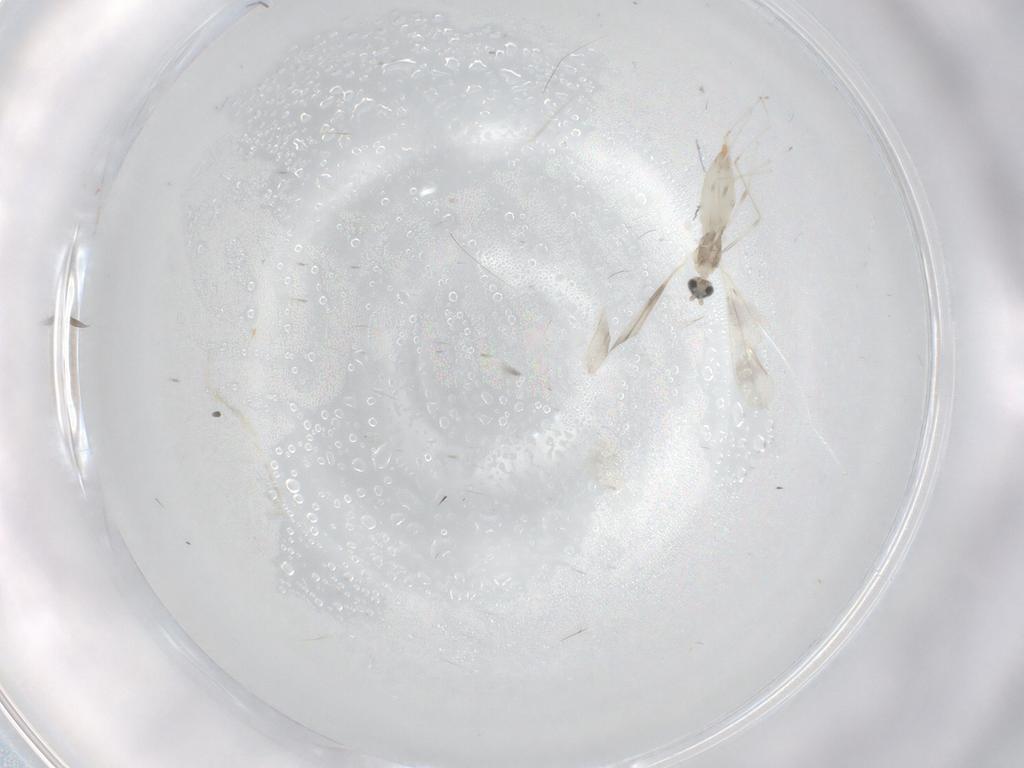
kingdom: Animalia
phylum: Arthropoda
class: Insecta
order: Diptera
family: Cecidomyiidae
